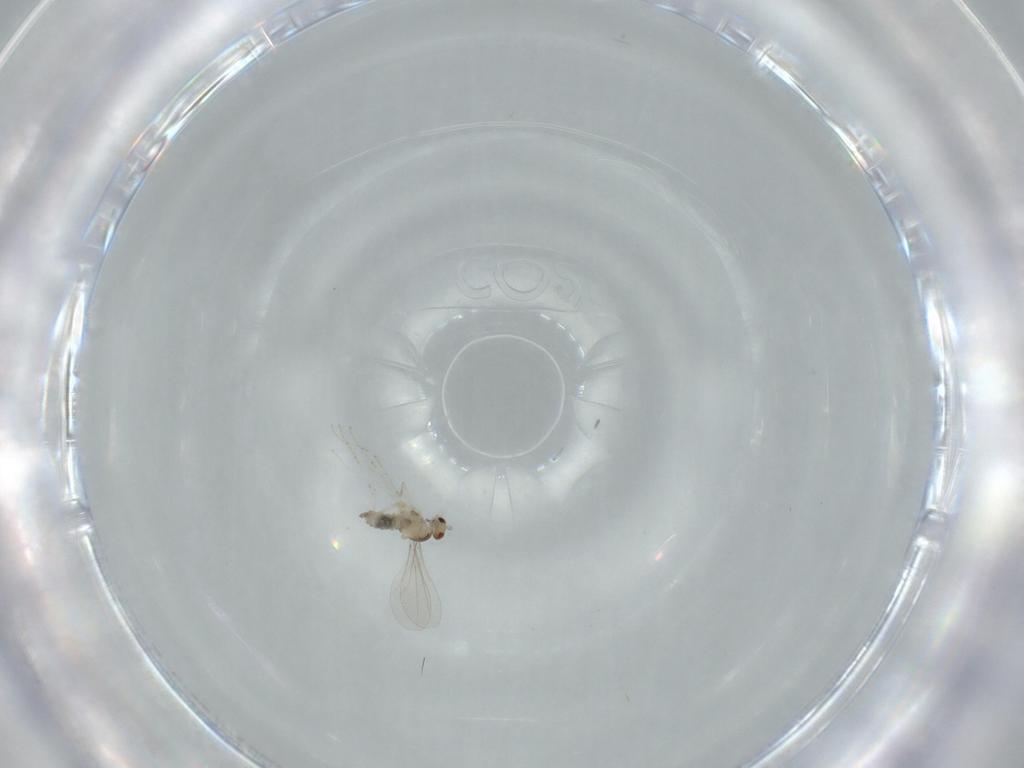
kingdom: Animalia
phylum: Arthropoda
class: Insecta
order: Diptera
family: Cecidomyiidae
